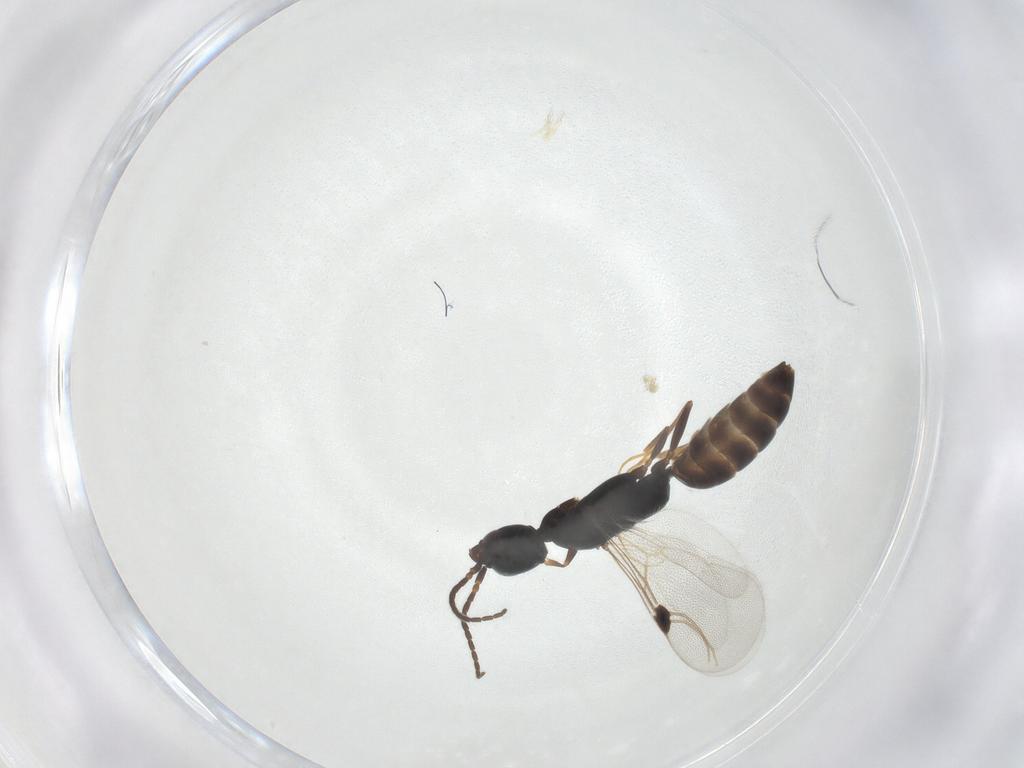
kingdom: Animalia
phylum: Arthropoda
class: Insecta
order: Hymenoptera
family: Bethylidae
